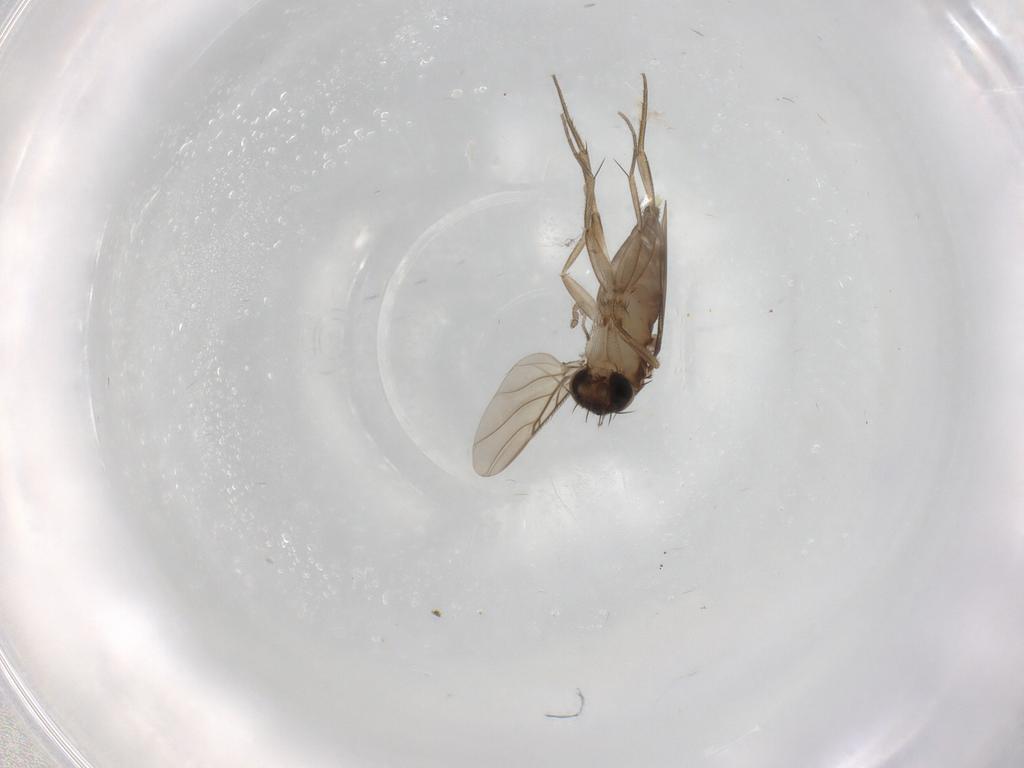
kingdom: Animalia
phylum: Arthropoda
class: Insecta
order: Diptera
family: Phoridae
